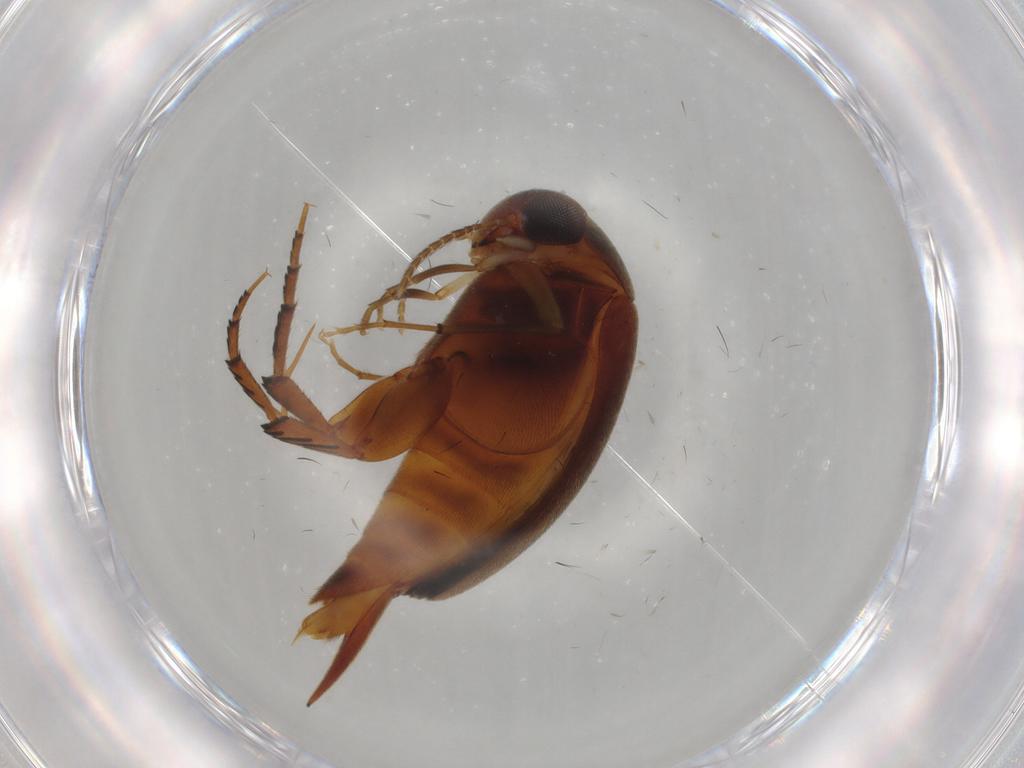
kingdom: Animalia
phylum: Arthropoda
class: Insecta
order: Coleoptera
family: Mordellidae
